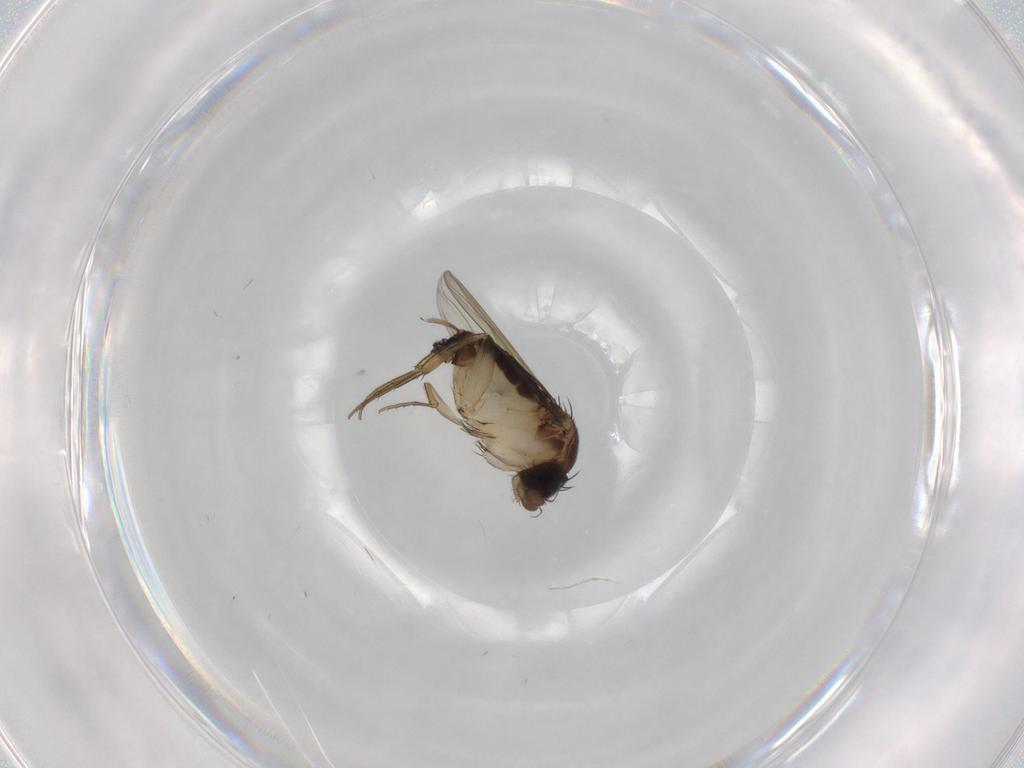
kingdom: Animalia
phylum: Arthropoda
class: Insecta
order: Diptera
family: Phoridae
